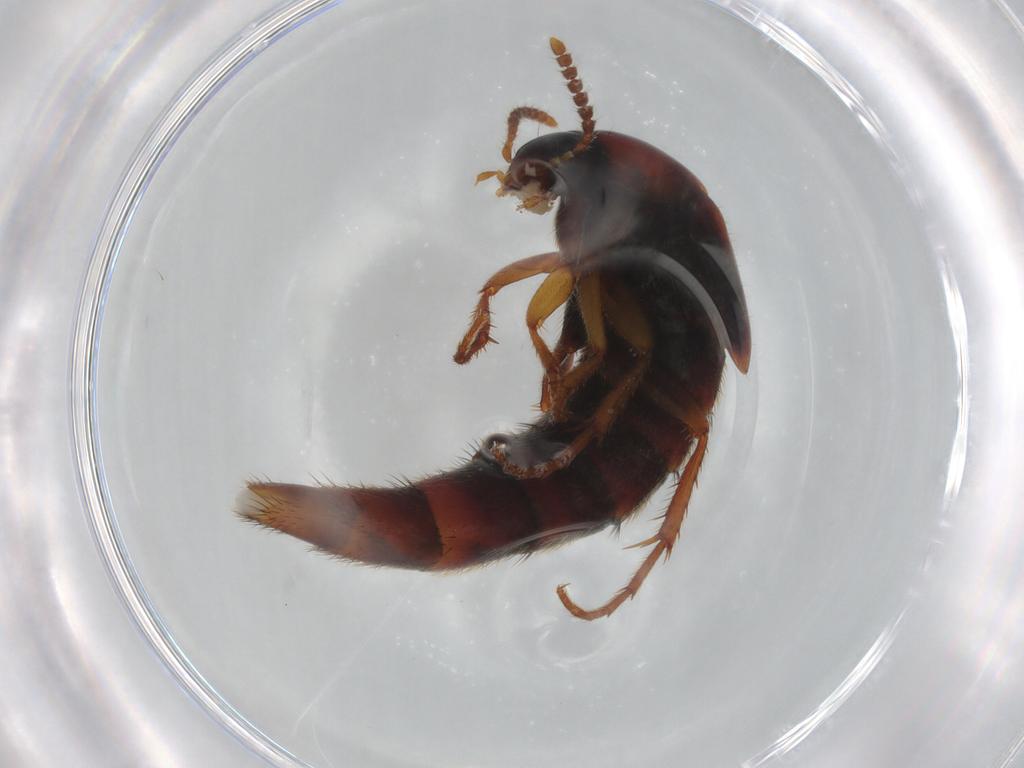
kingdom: Animalia
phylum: Arthropoda
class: Insecta
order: Coleoptera
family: Staphylinidae
